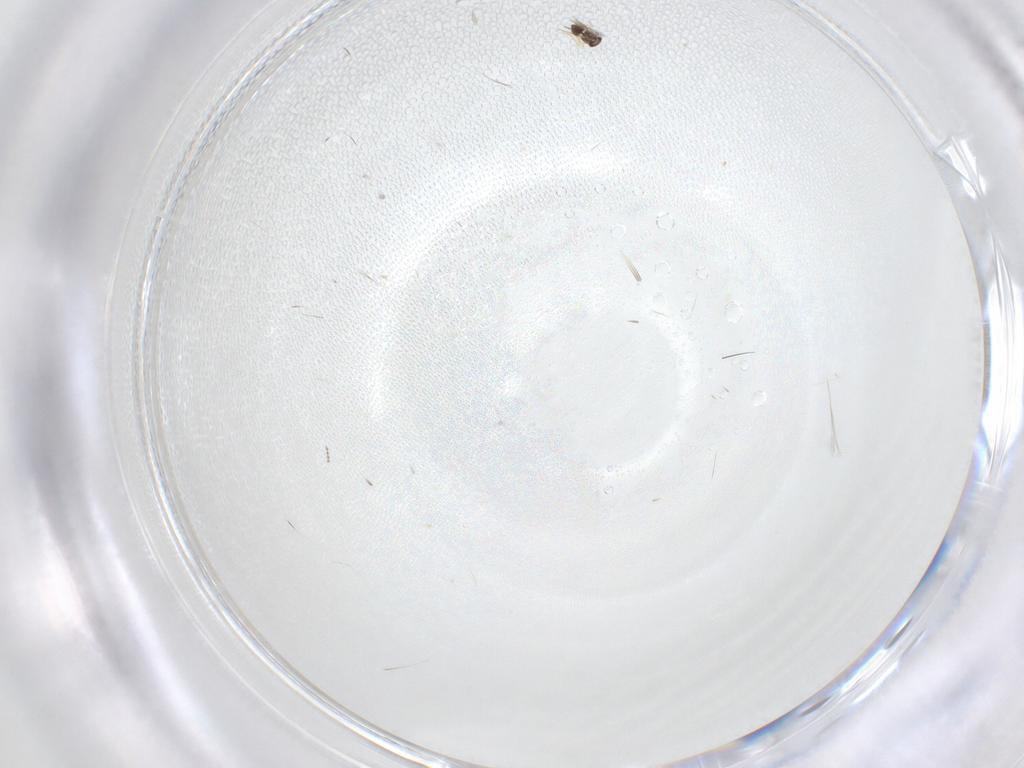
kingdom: Animalia
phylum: Arthropoda
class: Insecta
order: Diptera
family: Cecidomyiidae
